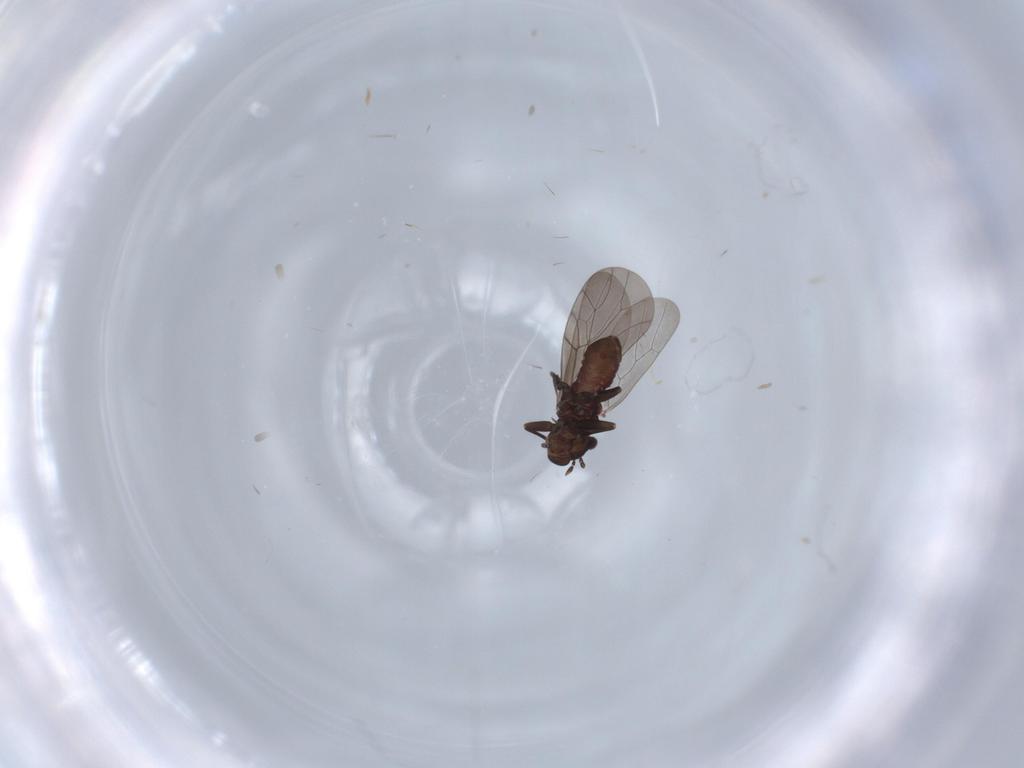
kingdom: Animalia
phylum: Arthropoda
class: Insecta
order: Psocodea
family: Lepidopsocidae
